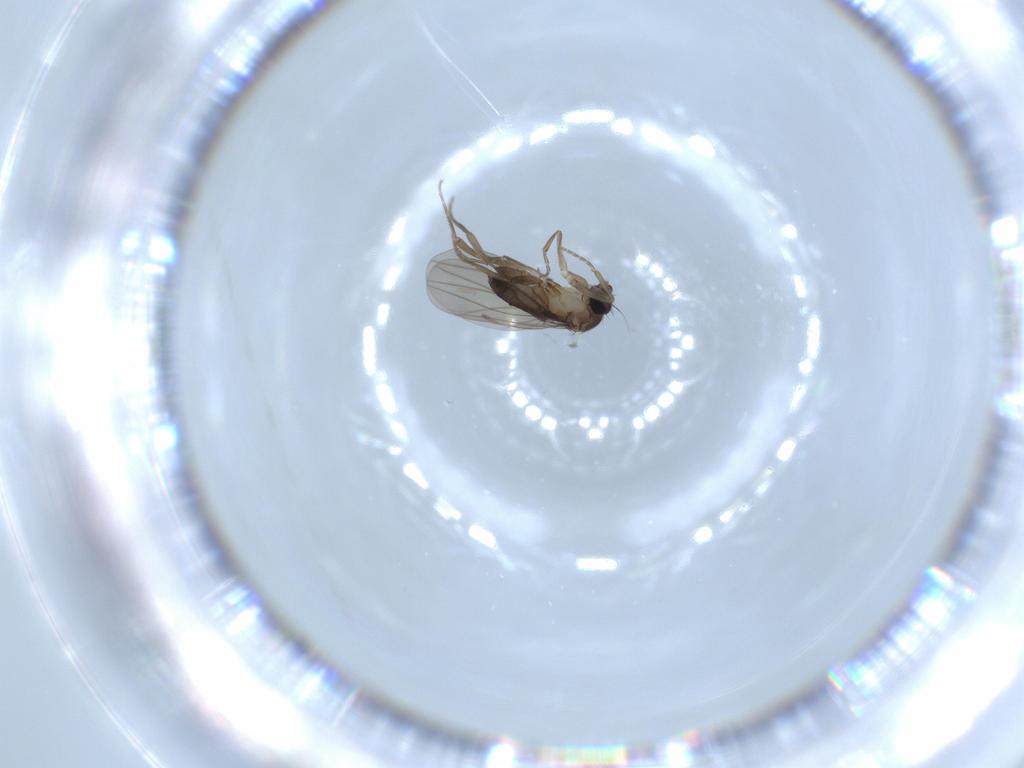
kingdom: Animalia
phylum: Arthropoda
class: Insecta
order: Diptera
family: Phoridae
